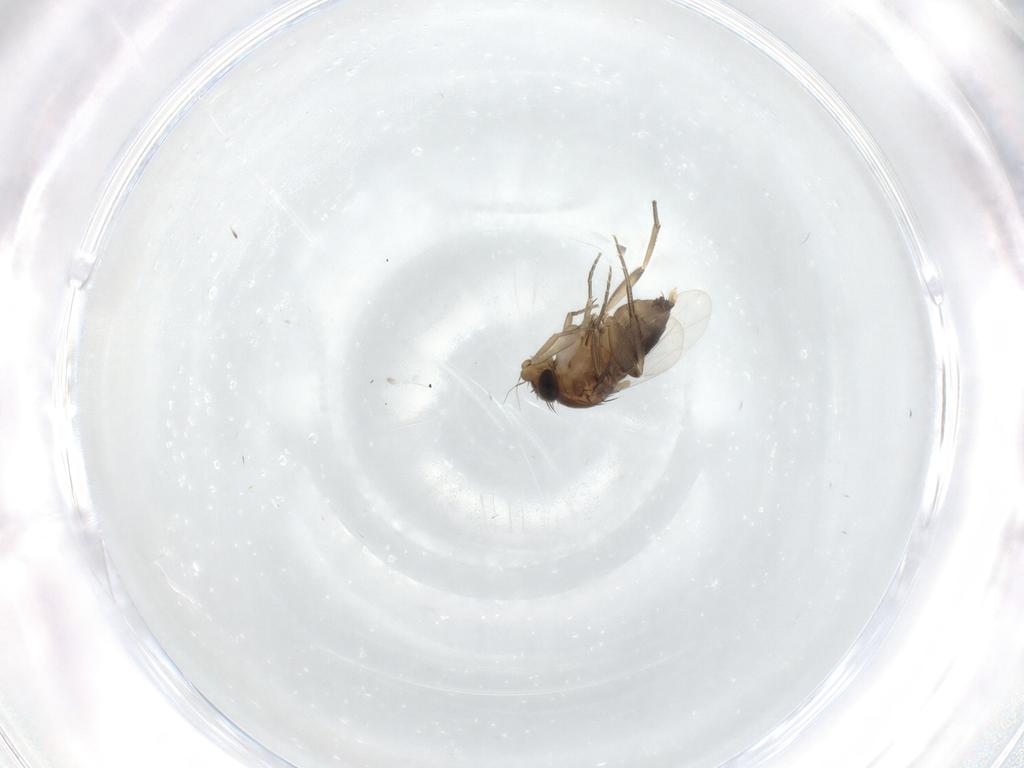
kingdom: Animalia
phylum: Arthropoda
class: Insecta
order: Diptera
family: Phoridae
